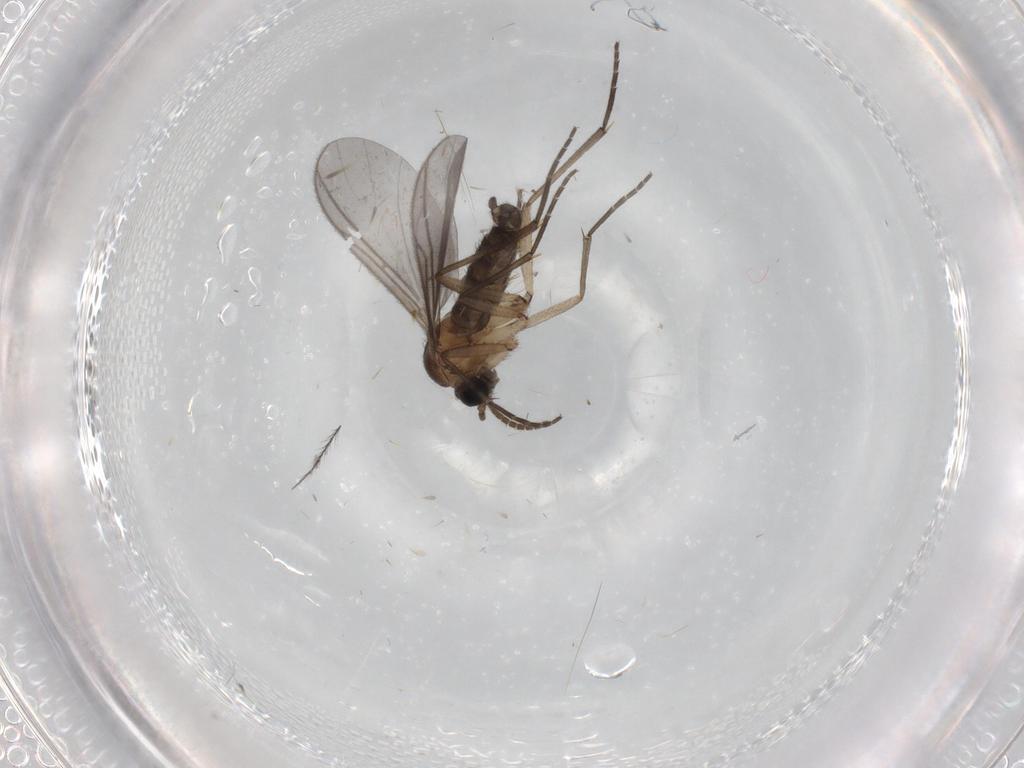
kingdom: Animalia
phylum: Arthropoda
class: Insecta
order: Diptera
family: Chironomidae
